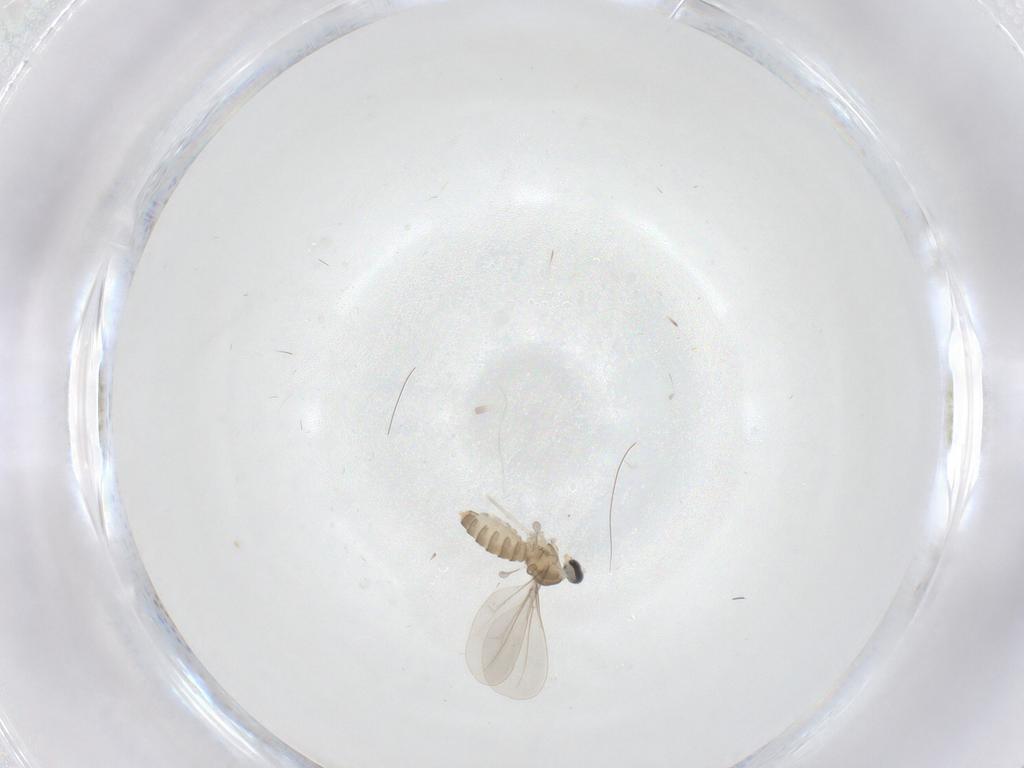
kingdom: Animalia
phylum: Arthropoda
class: Insecta
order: Diptera
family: Cecidomyiidae
